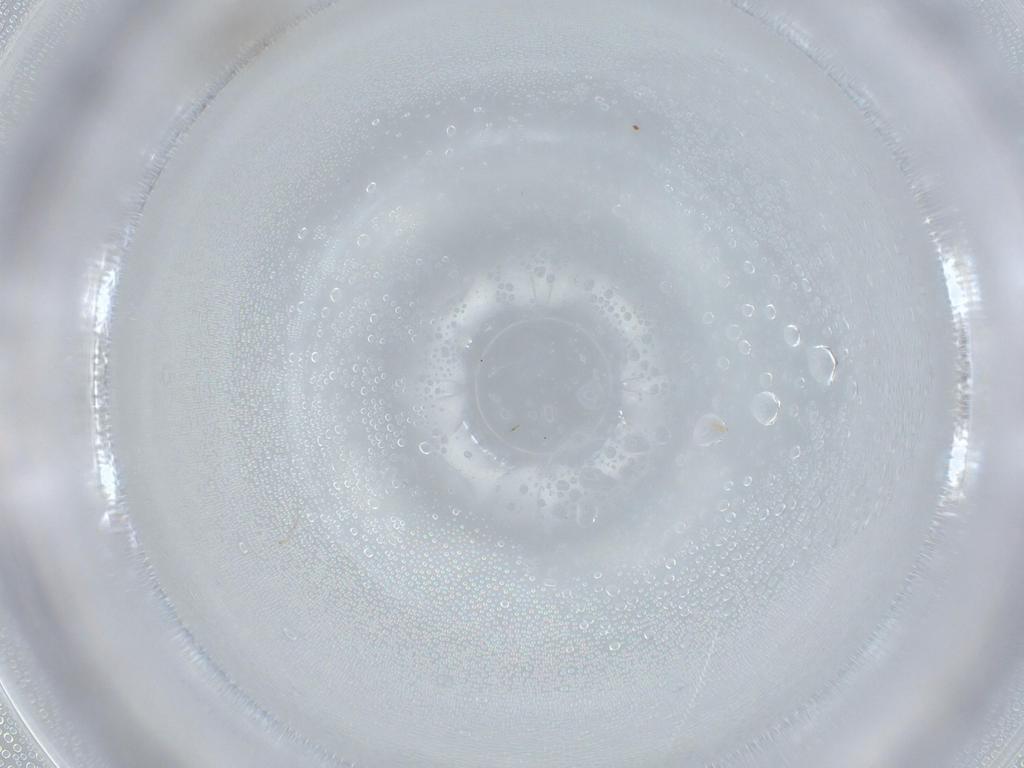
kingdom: Animalia
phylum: Arthropoda
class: Insecta
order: Diptera
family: Cecidomyiidae
